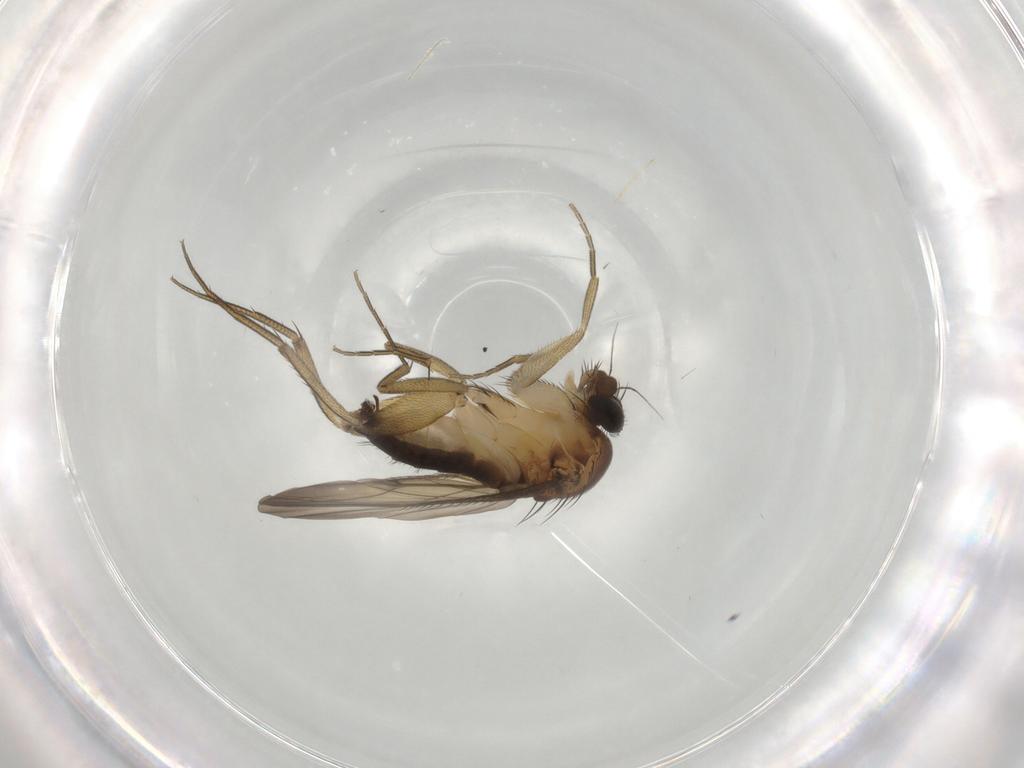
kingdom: Animalia
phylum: Arthropoda
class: Insecta
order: Diptera
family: Phoridae
